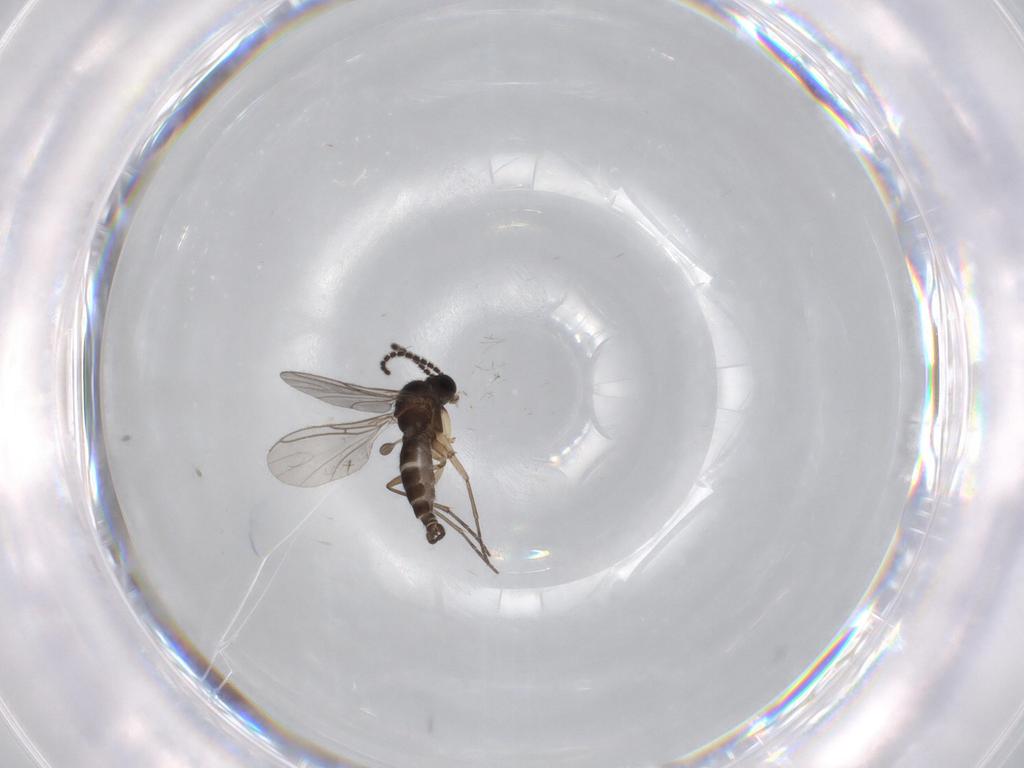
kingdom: Animalia
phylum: Arthropoda
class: Insecta
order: Diptera
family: Sciaridae
